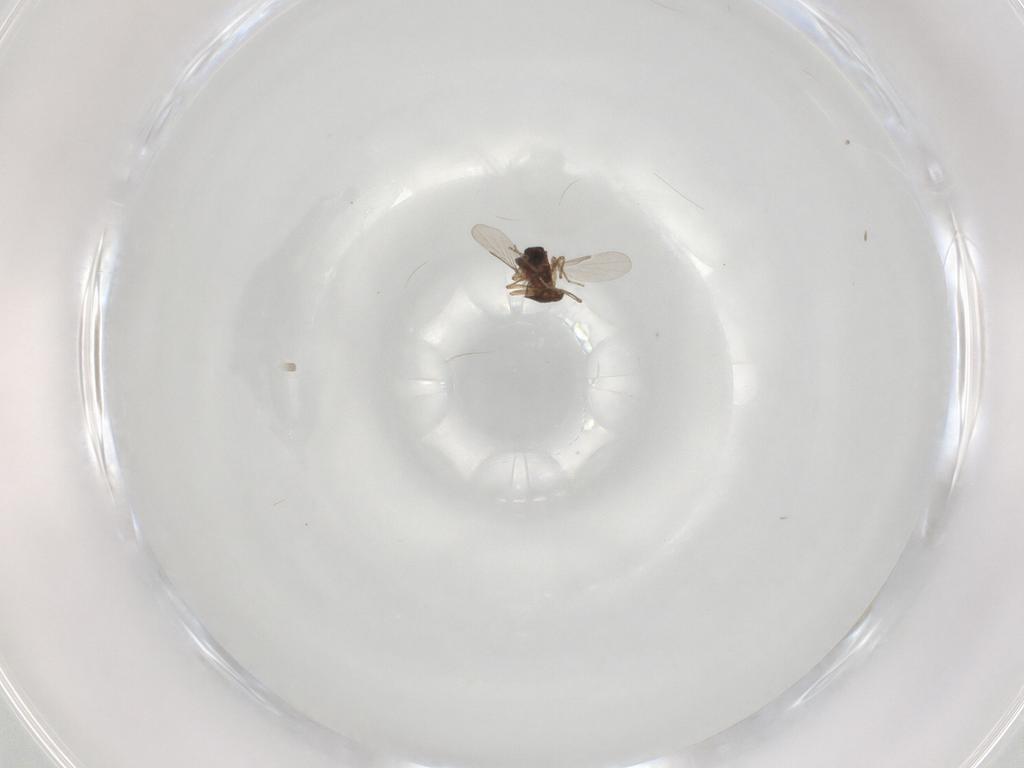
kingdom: Animalia
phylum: Arthropoda
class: Insecta
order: Diptera
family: Ceratopogonidae
